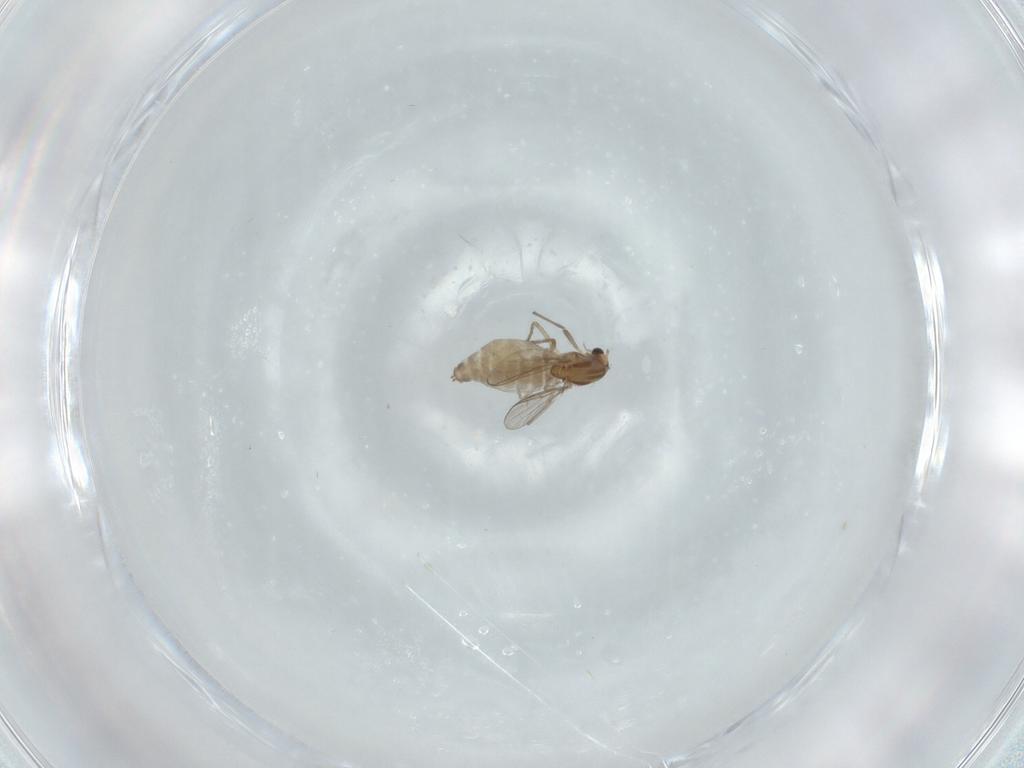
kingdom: Animalia
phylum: Arthropoda
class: Insecta
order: Diptera
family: Chironomidae
